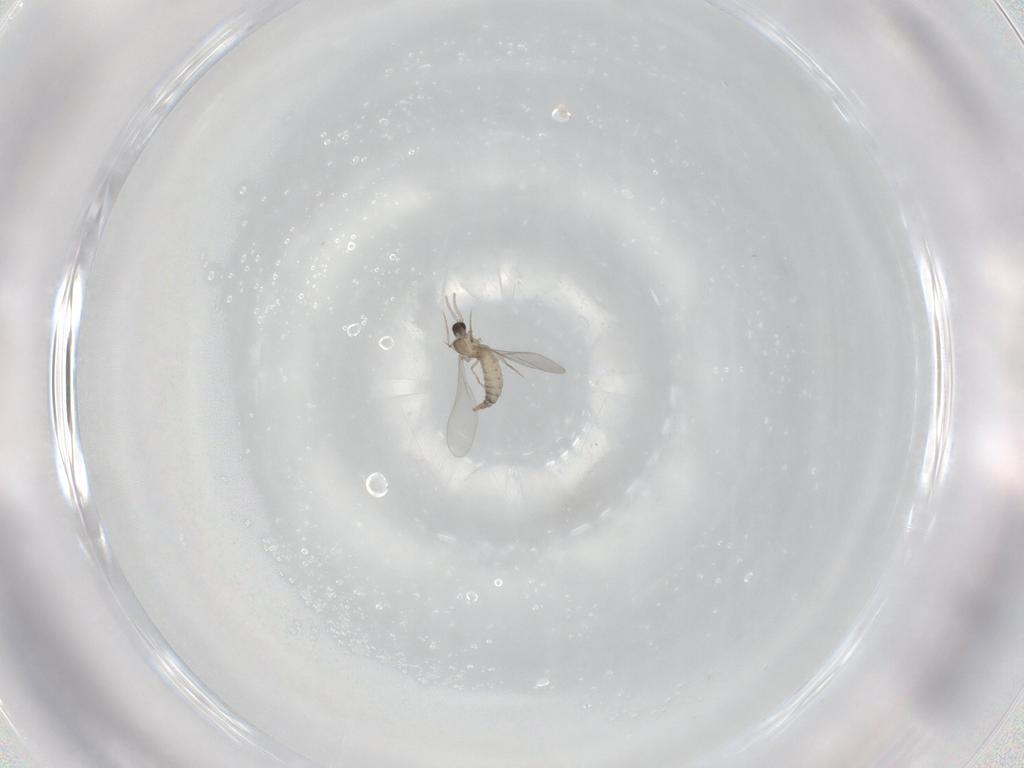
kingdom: Animalia
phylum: Arthropoda
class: Insecta
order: Diptera
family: Cecidomyiidae
